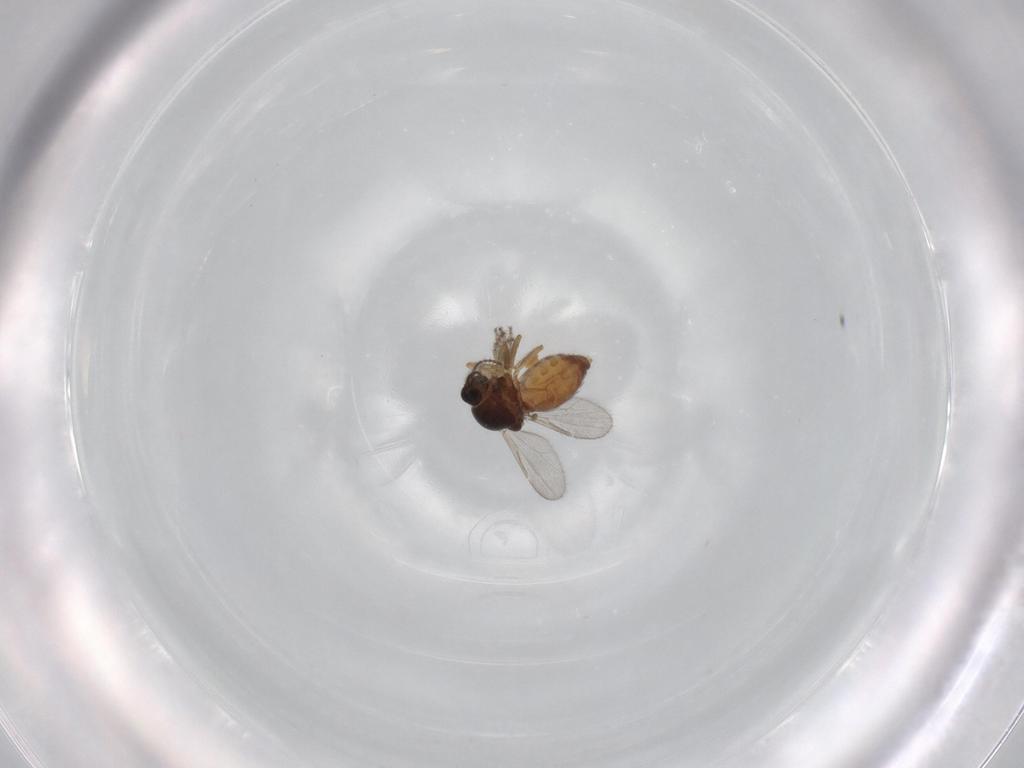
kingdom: Animalia
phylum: Arthropoda
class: Insecta
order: Diptera
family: Ceratopogonidae
